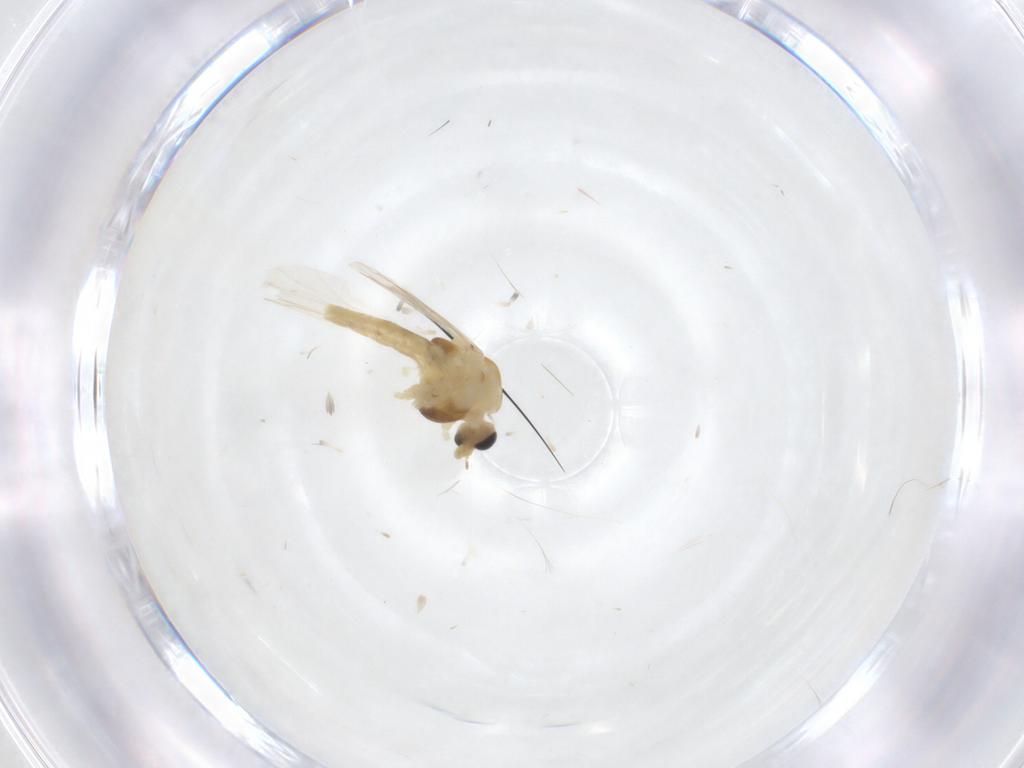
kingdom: Animalia
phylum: Arthropoda
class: Insecta
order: Diptera
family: Chironomidae
